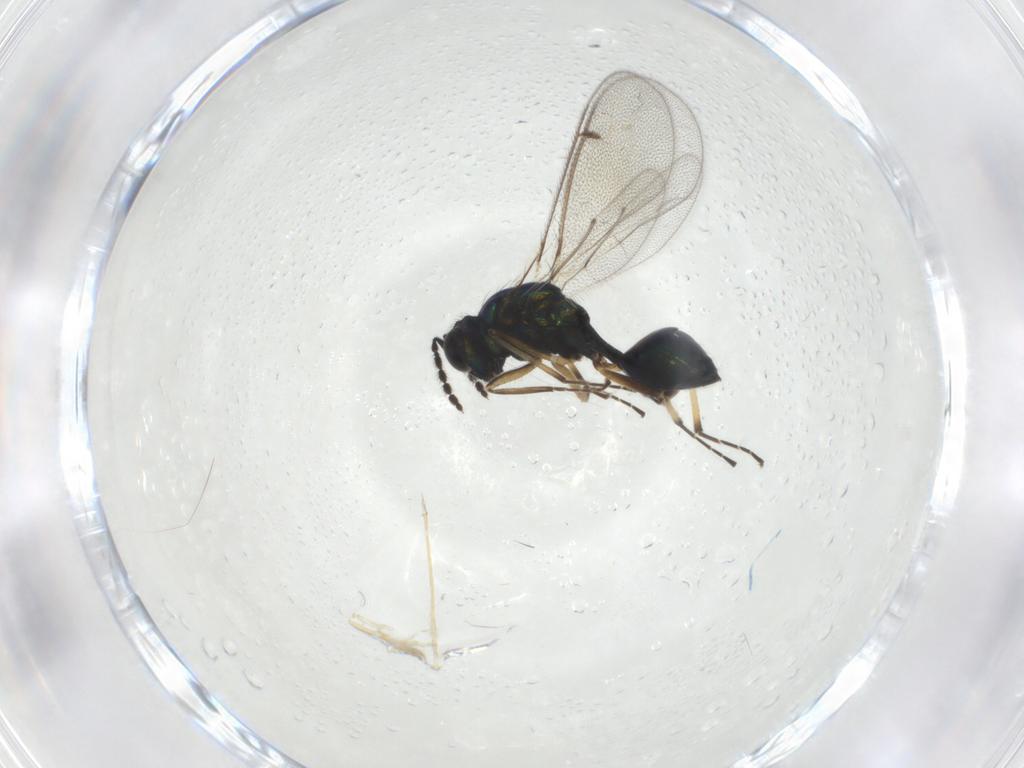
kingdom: Animalia
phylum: Arthropoda
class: Insecta
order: Hymenoptera
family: Eulophidae
